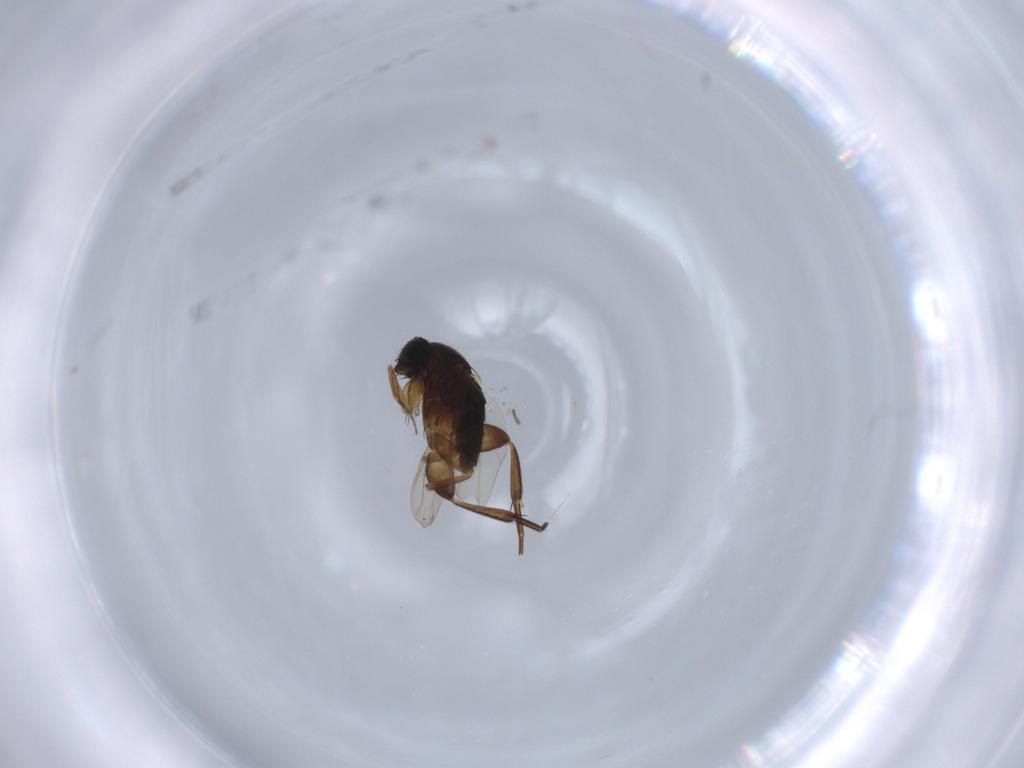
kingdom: Animalia
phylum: Arthropoda
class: Insecta
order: Diptera
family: Phoridae
